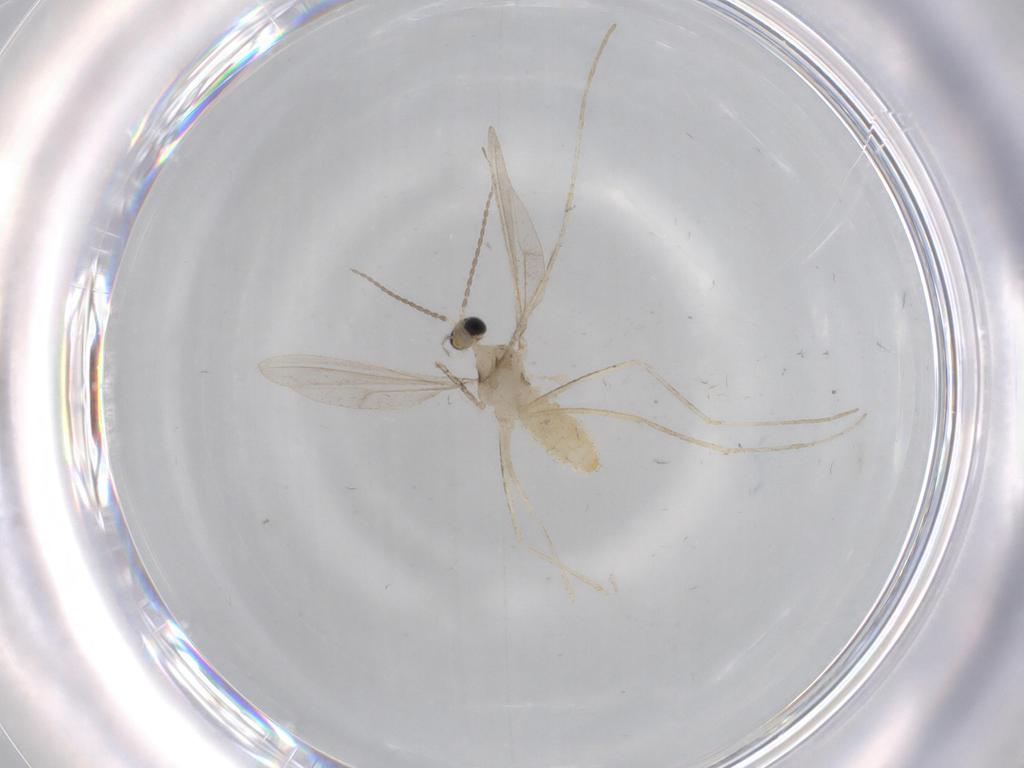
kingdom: Animalia
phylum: Arthropoda
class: Insecta
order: Diptera
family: Cecidomyiidae
